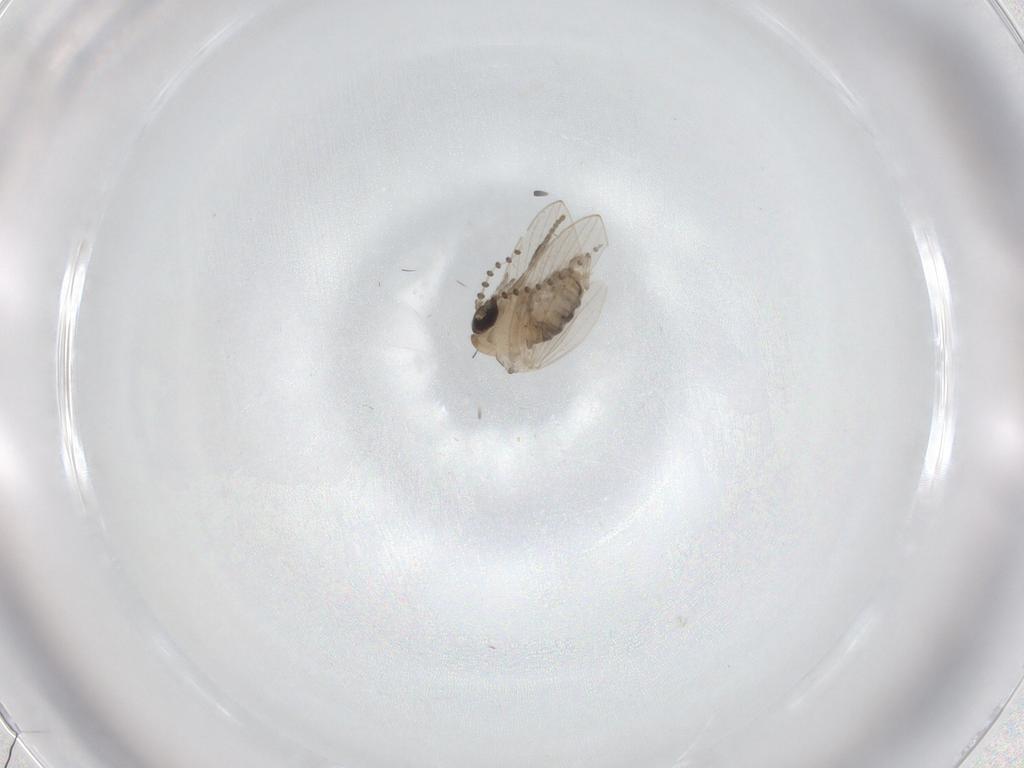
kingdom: Animalia
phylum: Arthropoda
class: Insecta
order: Diptera
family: Psychodidae
